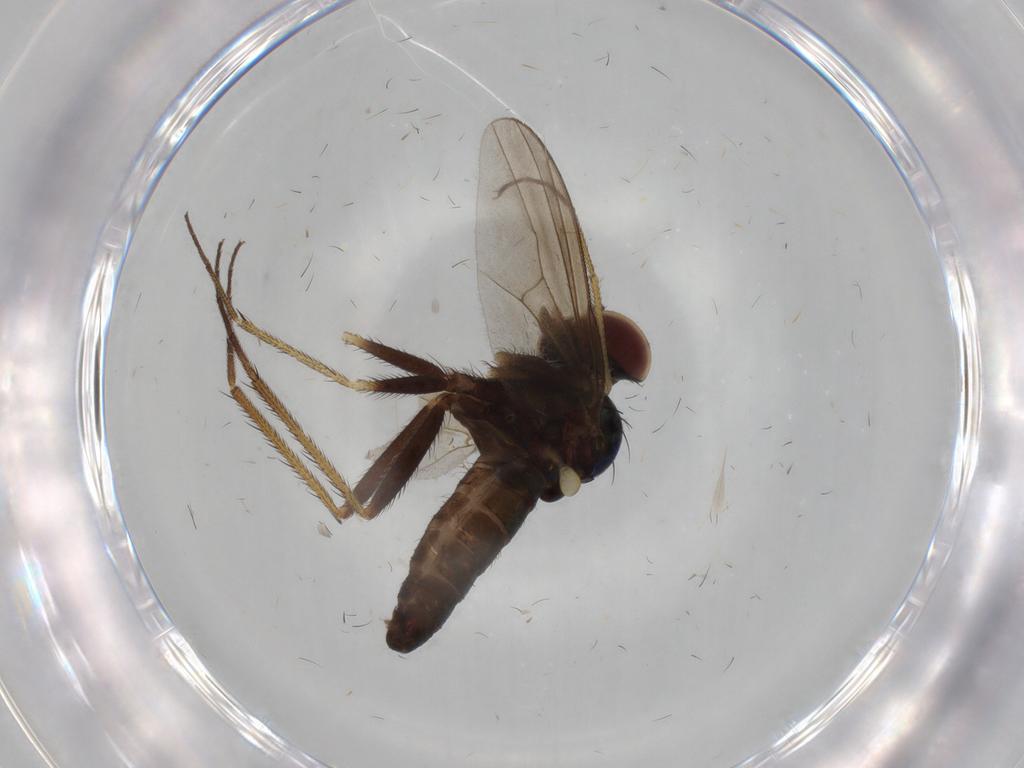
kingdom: Animalia
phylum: Arthropoda
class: Insecta
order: Diptera
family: Dolichopodidae
